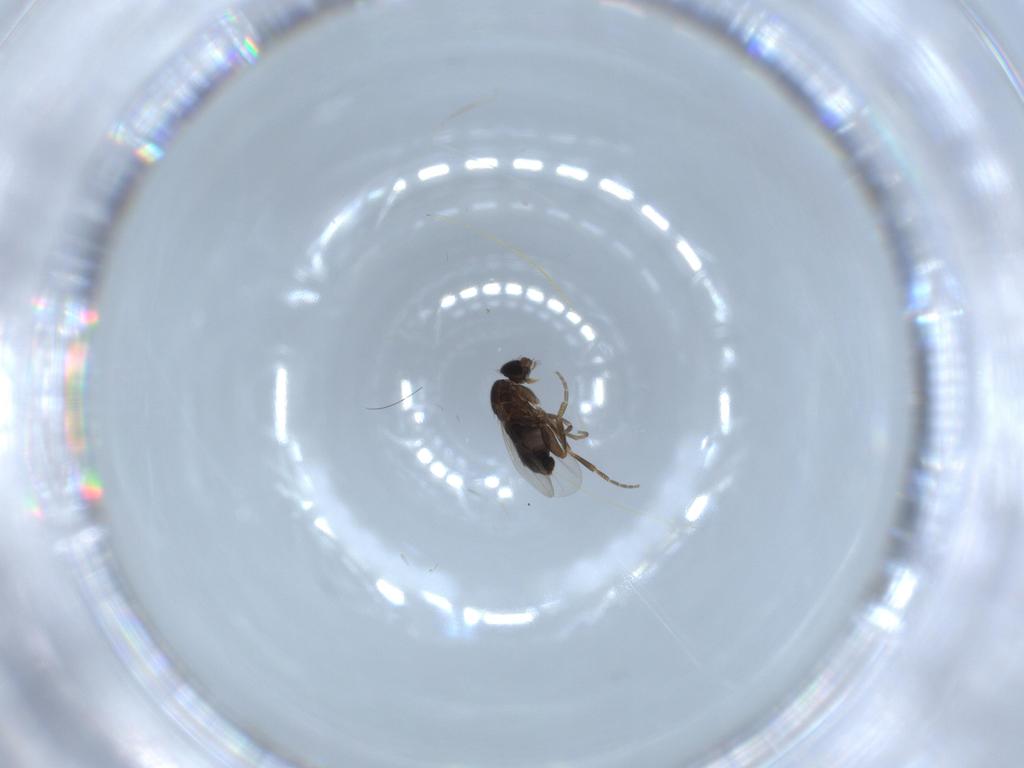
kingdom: Animalia
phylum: Arthropoda
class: Insecta
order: Diptera
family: Phoridae
